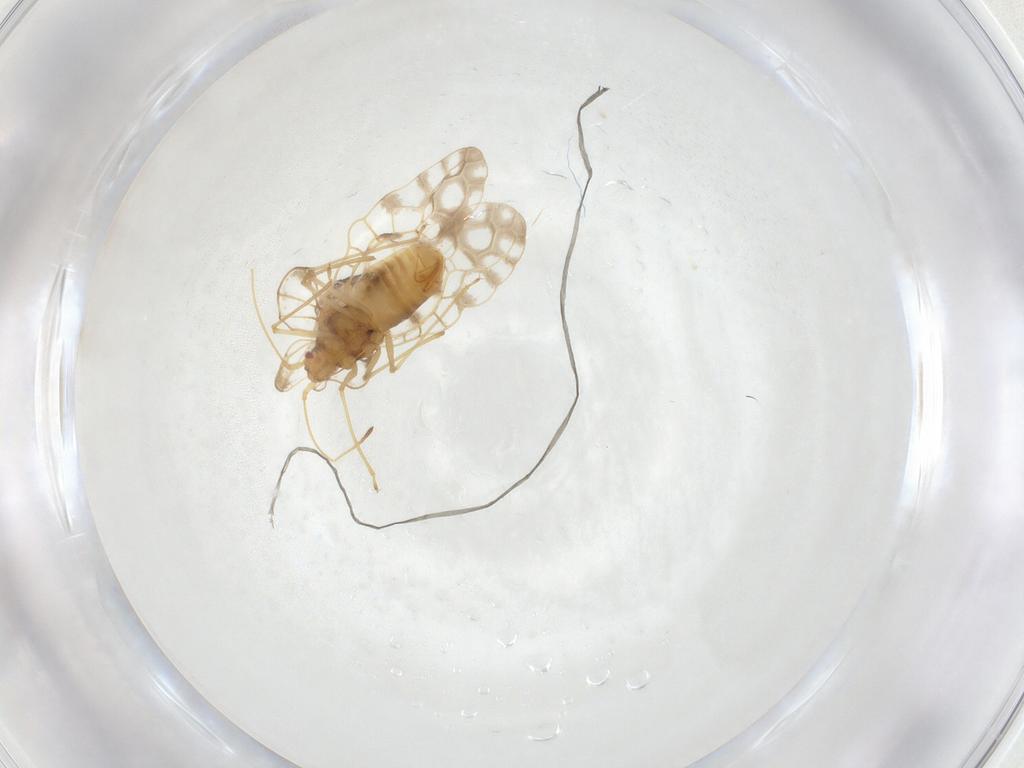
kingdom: Animalia
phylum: Arthropoda
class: Insecta
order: Hemiptera
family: Tingidae
